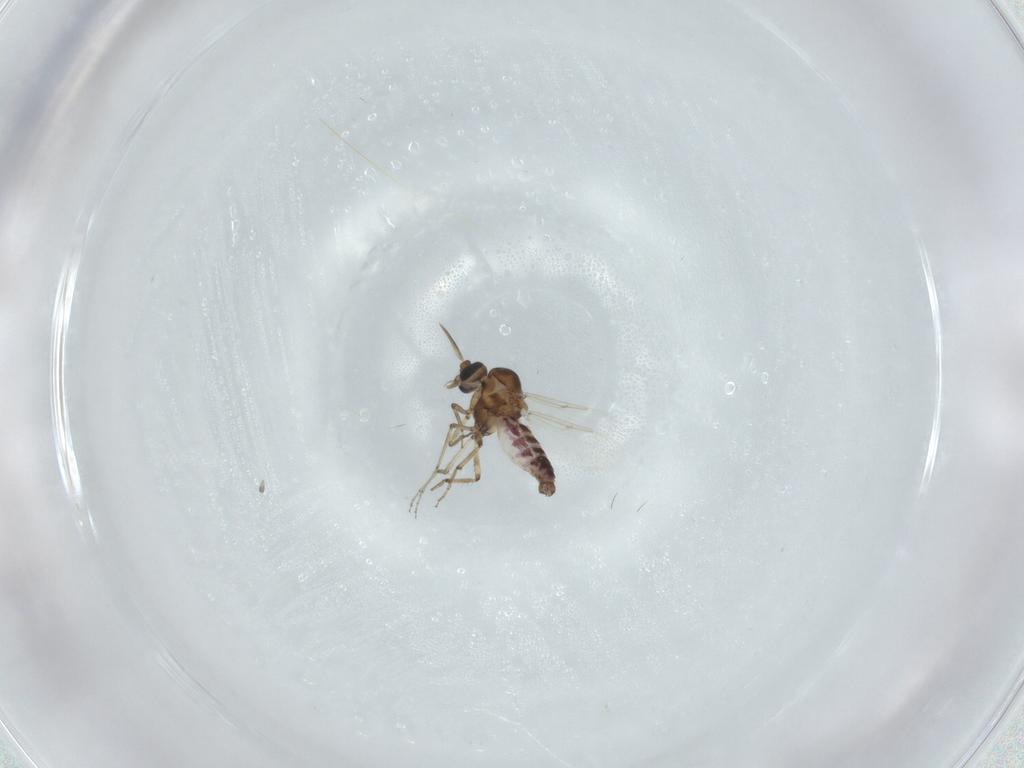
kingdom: Animalia
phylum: Arthropoda
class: Insecta
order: Diptera
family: Ceratopogonidae
